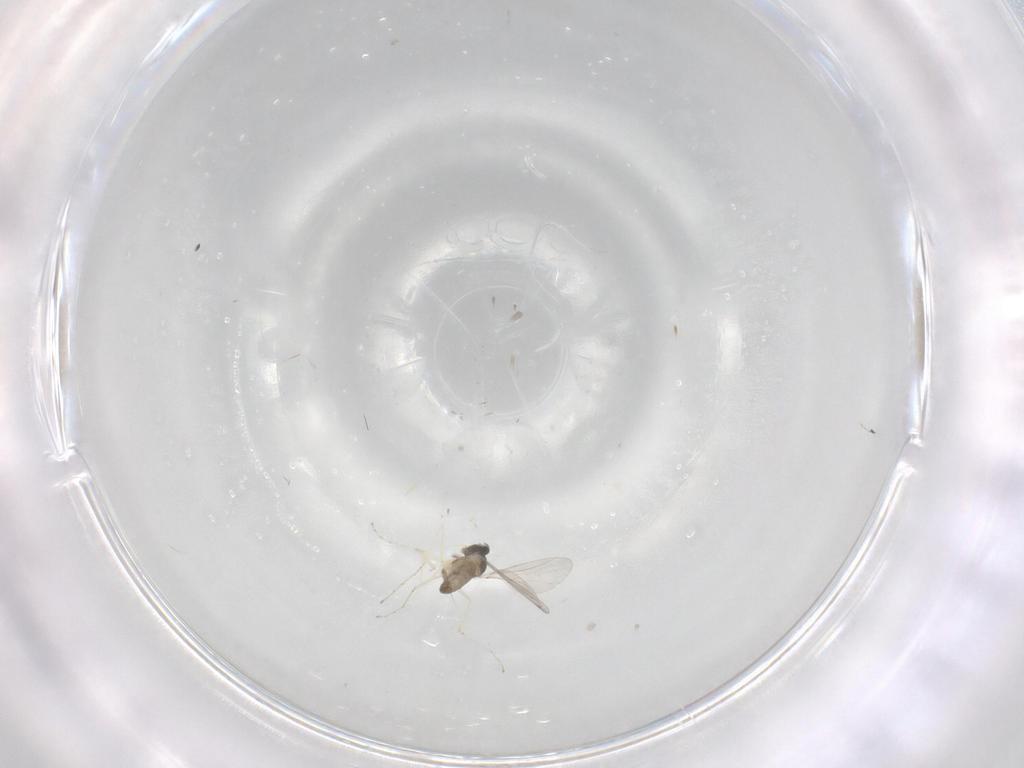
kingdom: Animalia
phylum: Arthropoda
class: Insecta
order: Diptera
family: Cecidomyiidae
